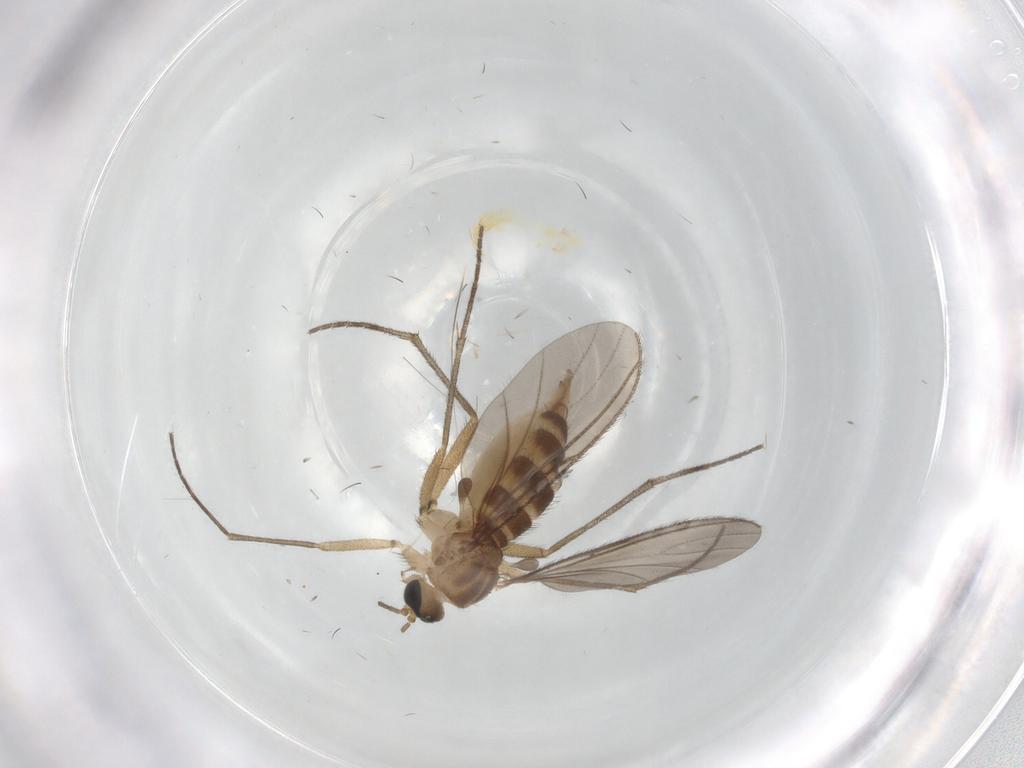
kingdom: Animalia
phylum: Arthropoda
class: Insecta
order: Diptera
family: Sciaridae
